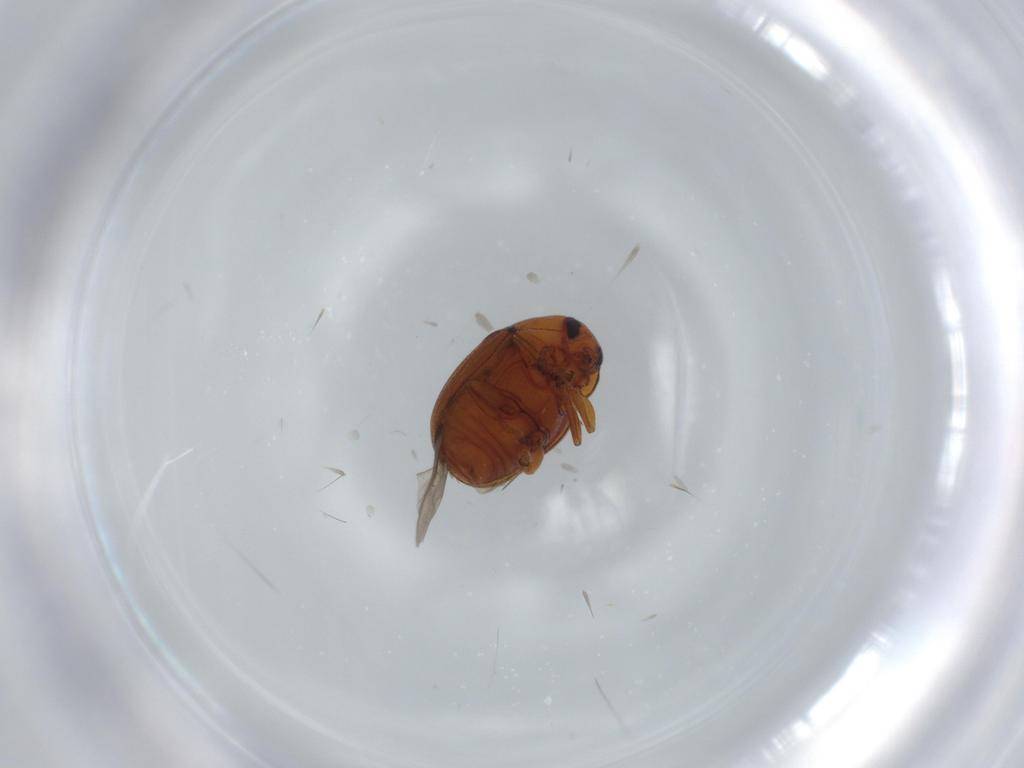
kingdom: Animalia
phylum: Arthropoda
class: Insecta
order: Coleoptera
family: Chrysomelidae
